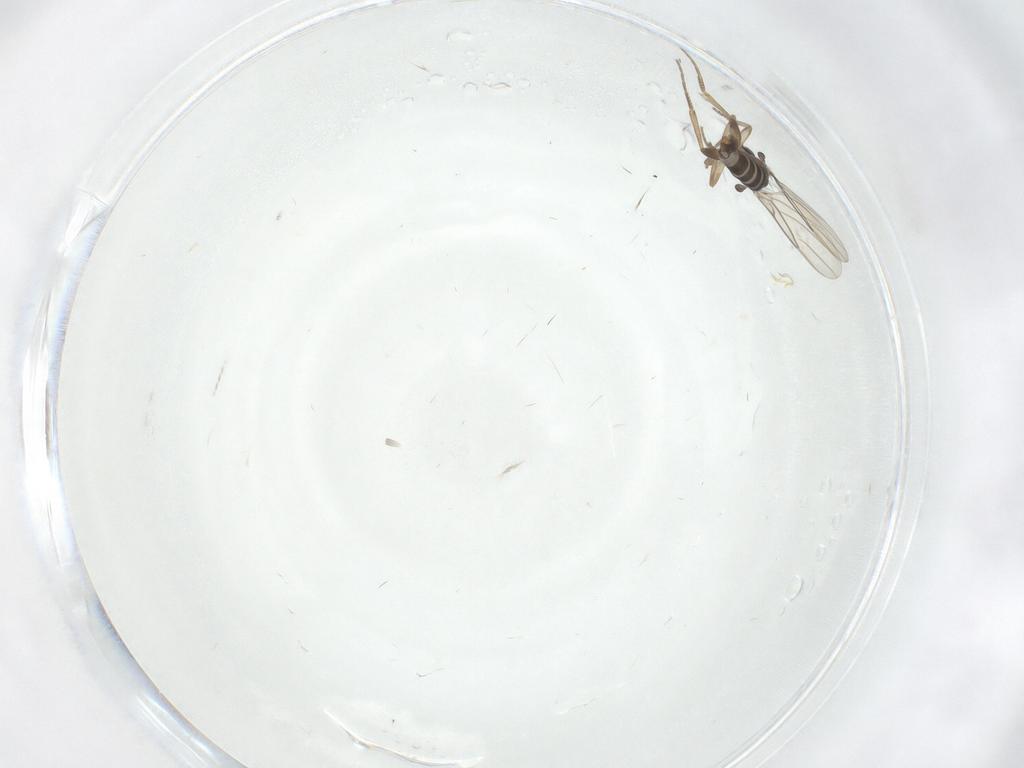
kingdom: Animalia
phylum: Arthropoda
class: Insecta
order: Diptera
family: Phoridae
